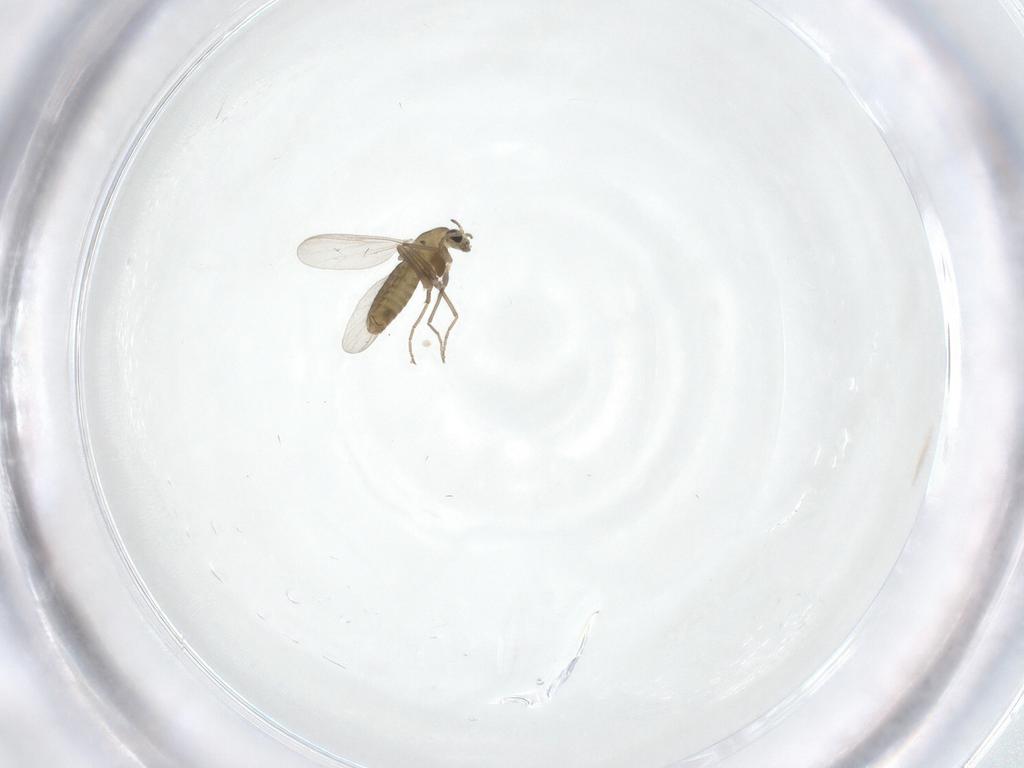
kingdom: Animalia
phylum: Arthropoda
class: Insecta
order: Diptera
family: Chironomidae
